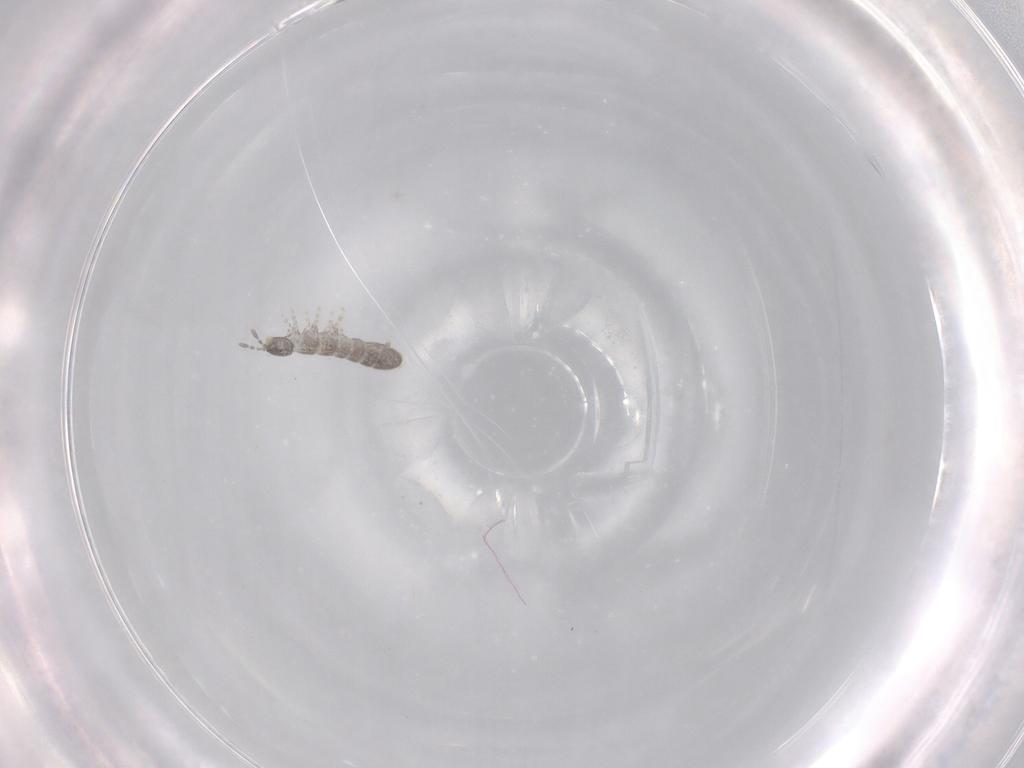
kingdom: Animalia
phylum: Arthropoda
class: Collembola
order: Entomobryomorpha
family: Isotomidae
